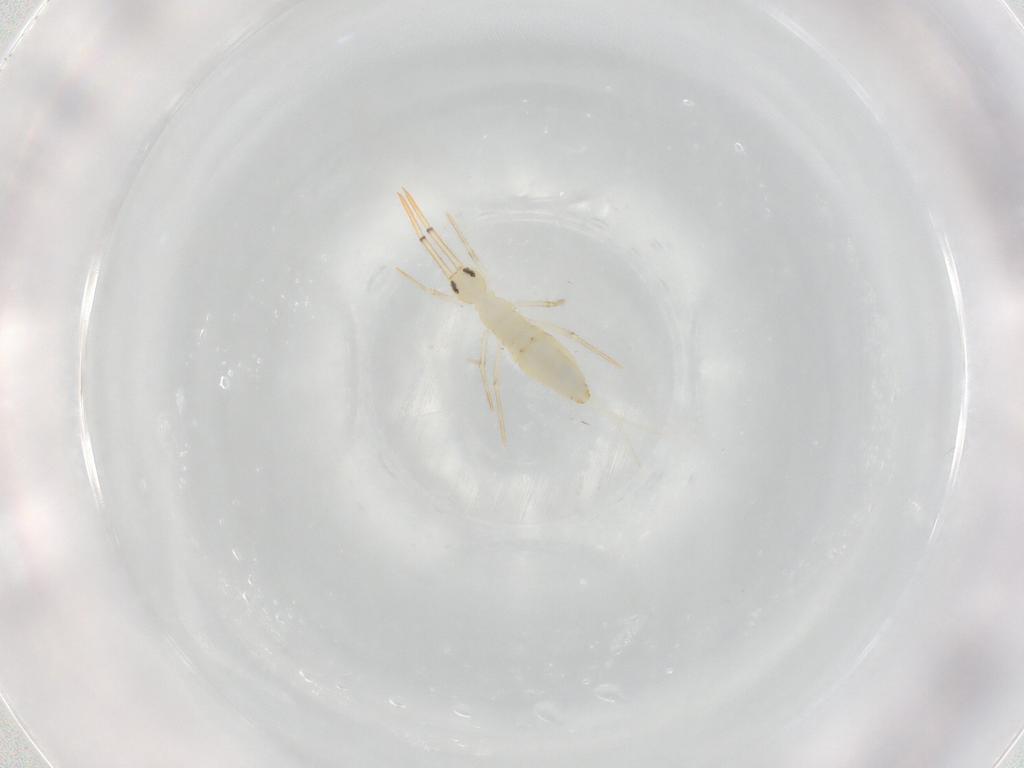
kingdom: Animalia
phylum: Arthropoda
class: Collembola
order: Entomobryomorpha
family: Entomobryidae
